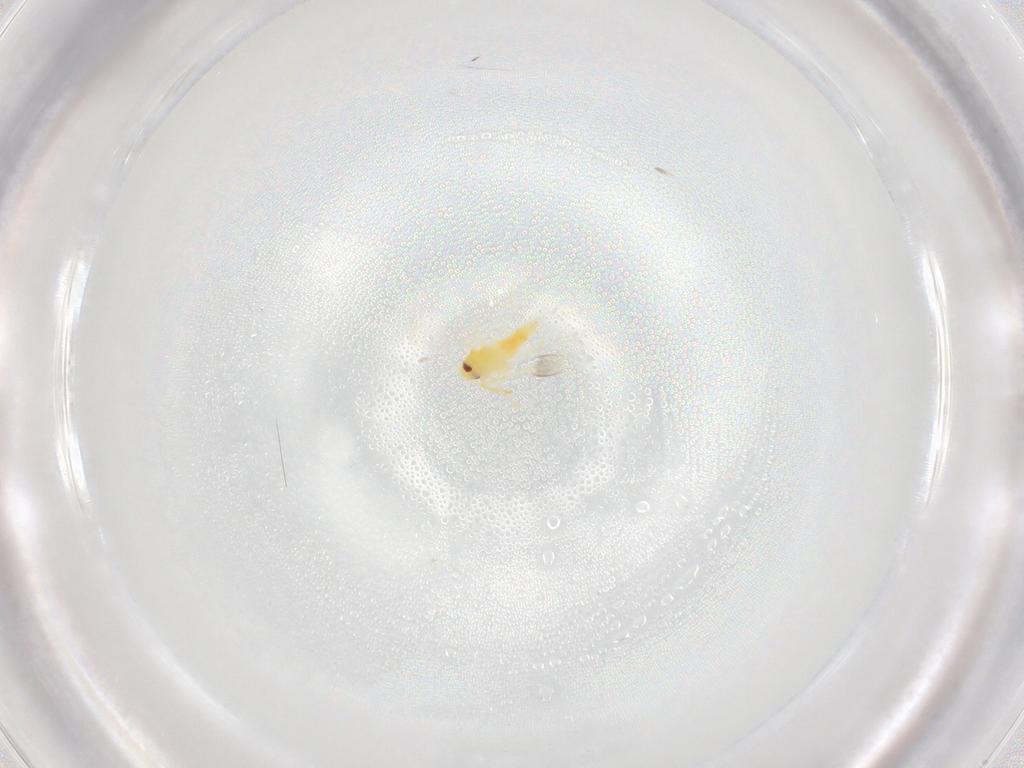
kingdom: Animalia
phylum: Arthropoda
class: Insecta
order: Hemiptera
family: Aleyrodidae
